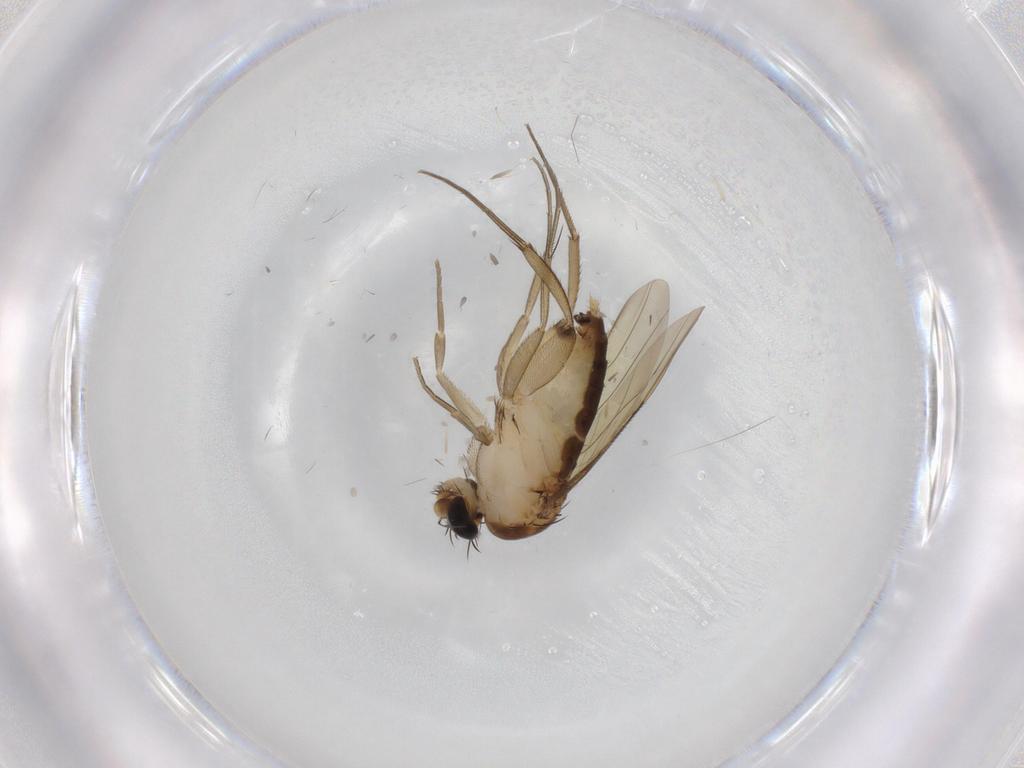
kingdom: Animalia
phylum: Arthropoda
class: Insecta
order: Diptera
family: Phoridae
